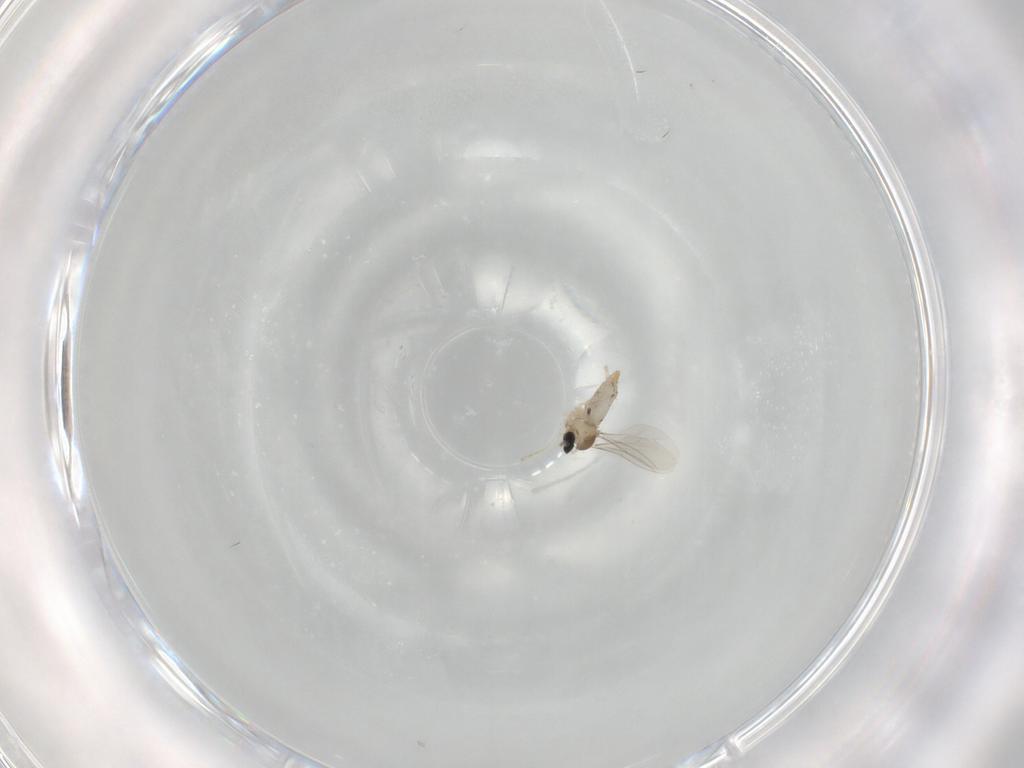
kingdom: Animalia
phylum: Arthropoda
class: Insecta
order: Diptera
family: Cecidomyiidae
